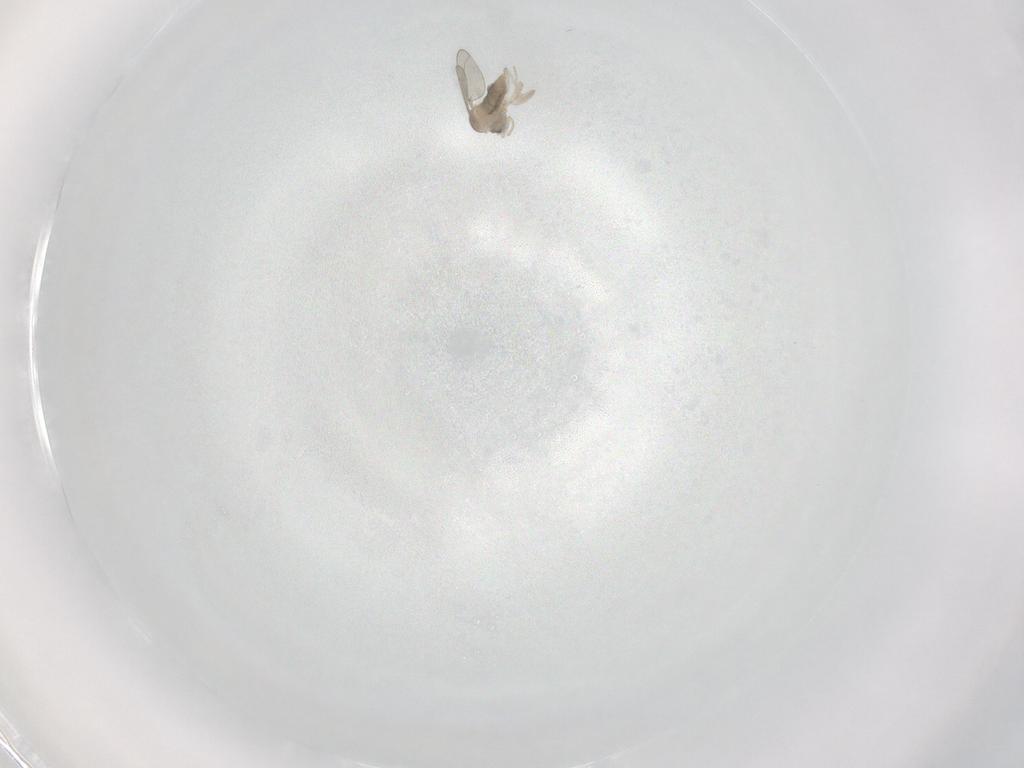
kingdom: Animalia
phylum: Arthropoda
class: Insecta
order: Diptera
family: Cecidomyiidae
